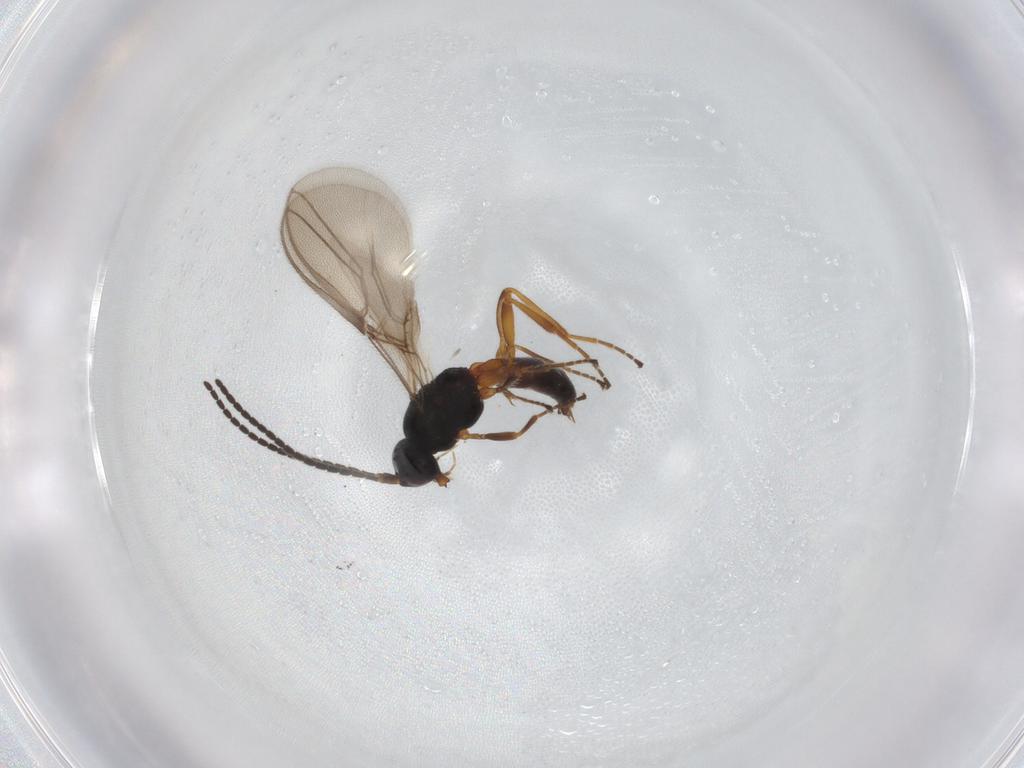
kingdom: Animalia
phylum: Arthropoda
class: Insecta
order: Hymenoptera
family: Braconidae
